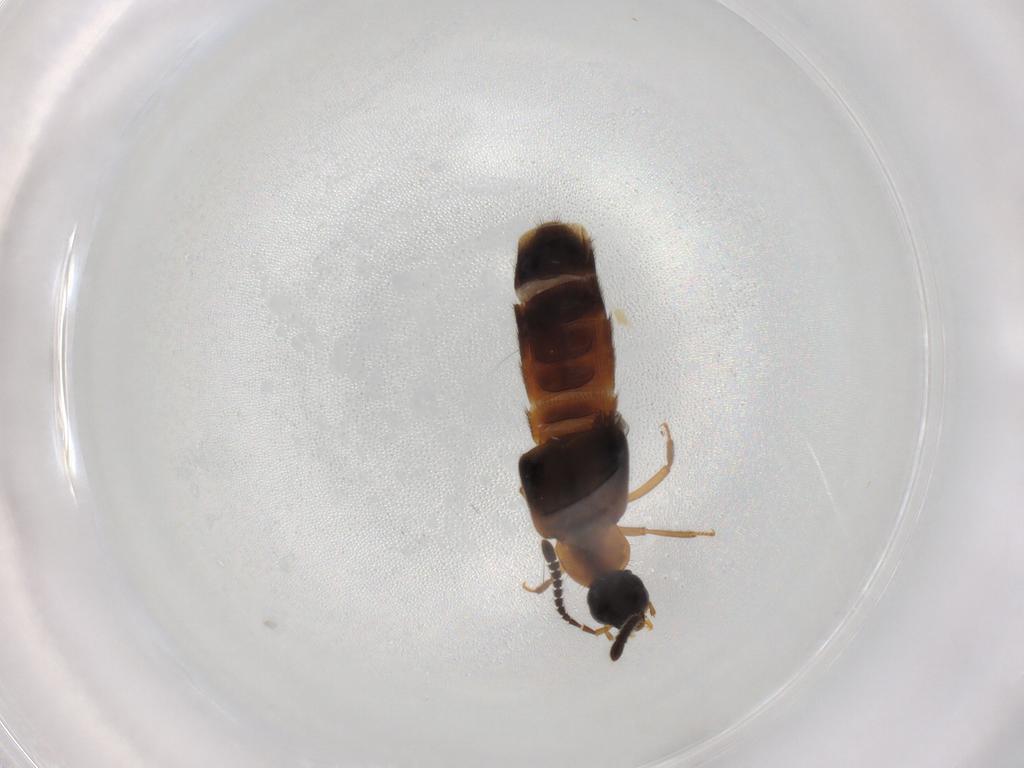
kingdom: Animalia
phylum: Arthropoda
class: Insecta
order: Coleoptera
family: Staphylinidae
